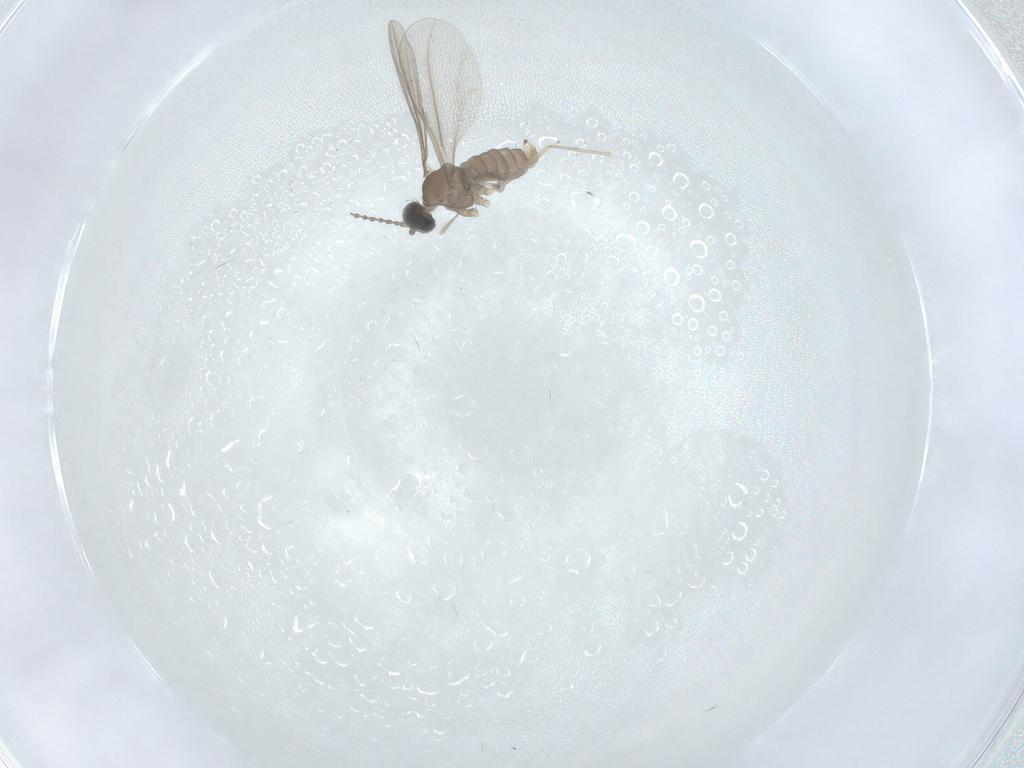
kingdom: Animalia
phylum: Arthropoda
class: Insecta
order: Diptera
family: Cecidomyiidae
